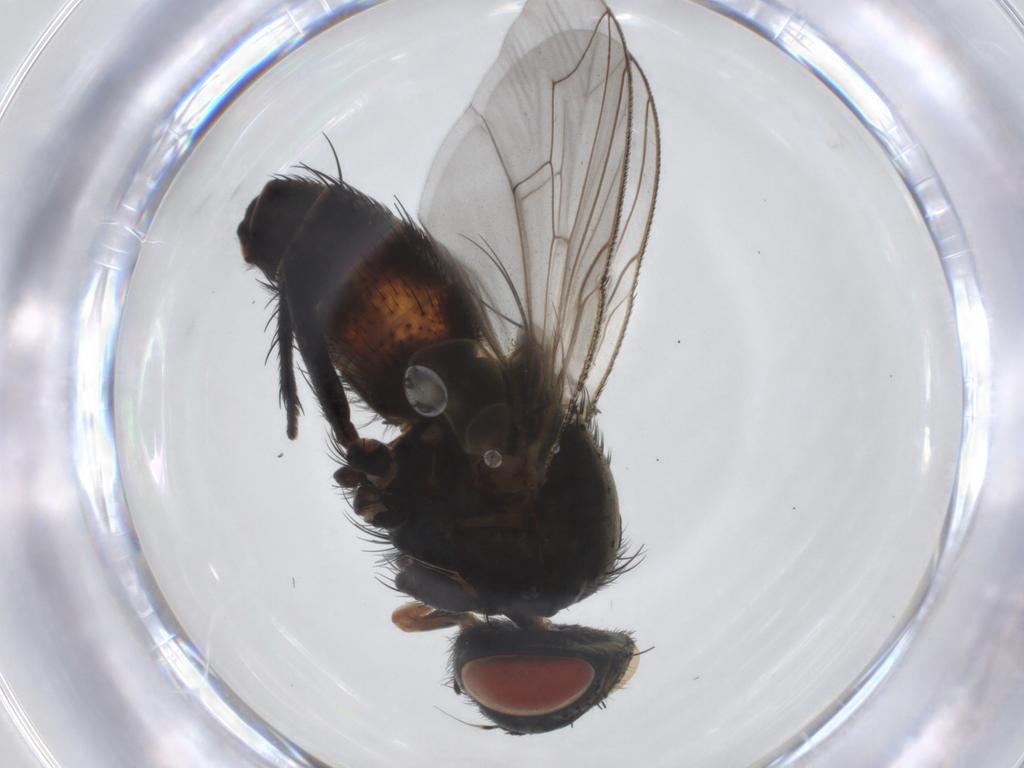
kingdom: Animalia
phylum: Arthropoda
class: Insecta
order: Diptera
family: Sarcophagidae
